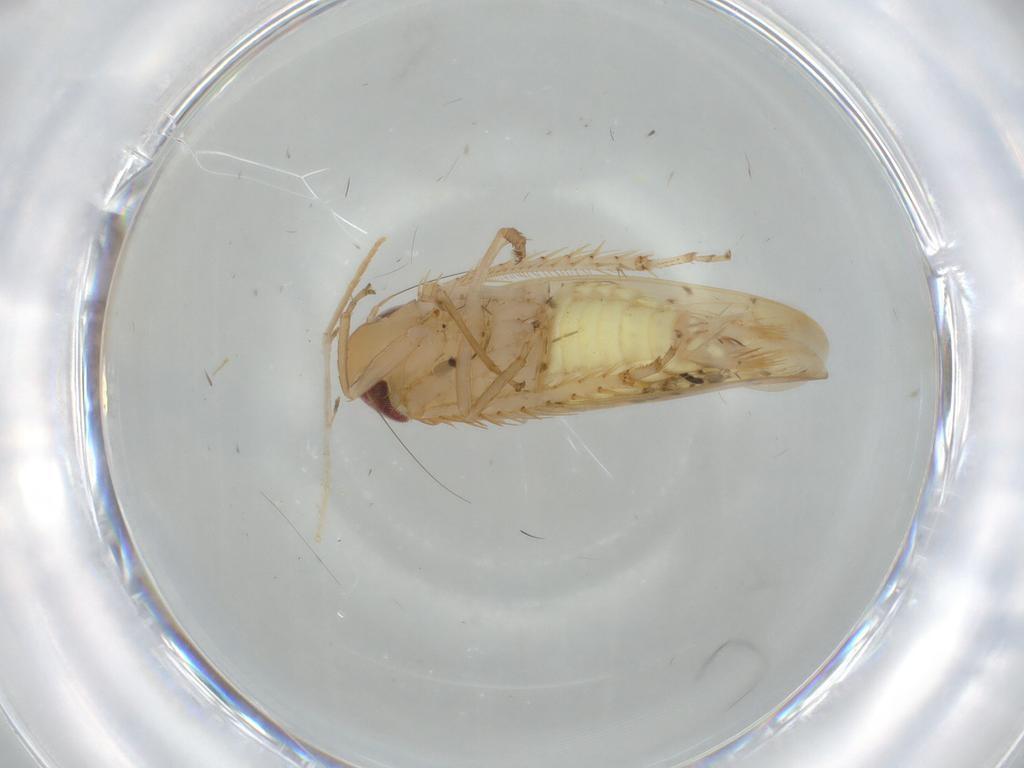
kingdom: Animalia
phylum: Arthropoda
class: Insecta
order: Hemiptera
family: Cicadellidae
